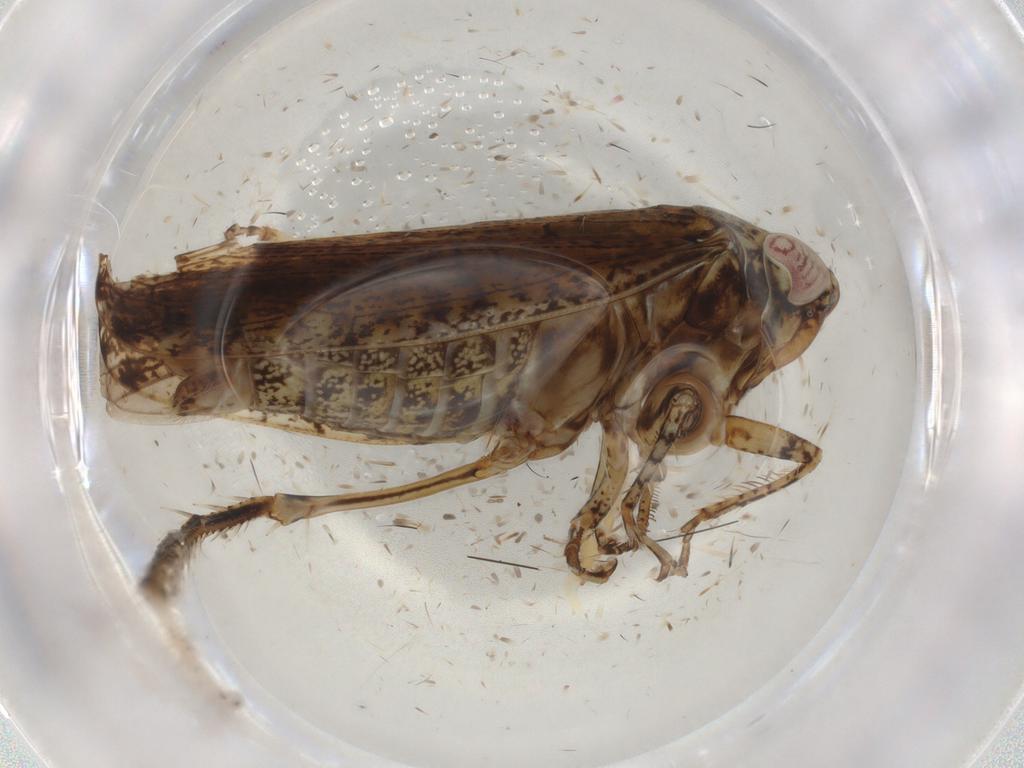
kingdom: Animalia
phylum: Arthropoda
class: Insecta
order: Hemiptera
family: Cicadellidae
